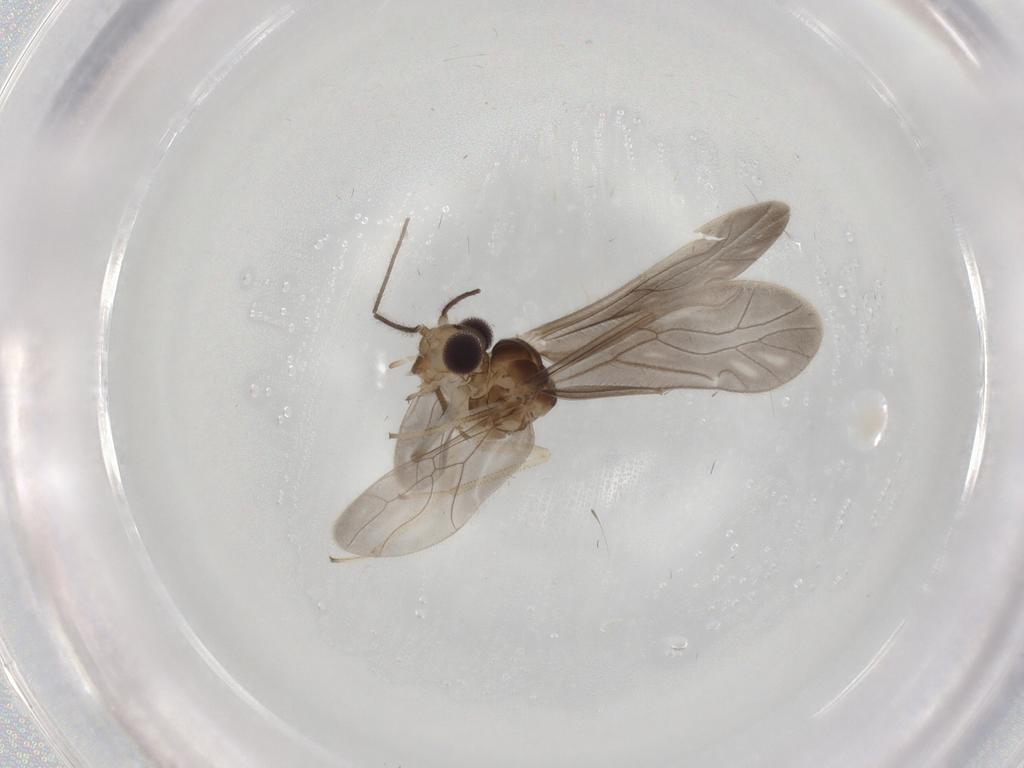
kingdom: Animalia
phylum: Arthropoda
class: Insecta
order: Psocodea
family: Caeciliusidae
